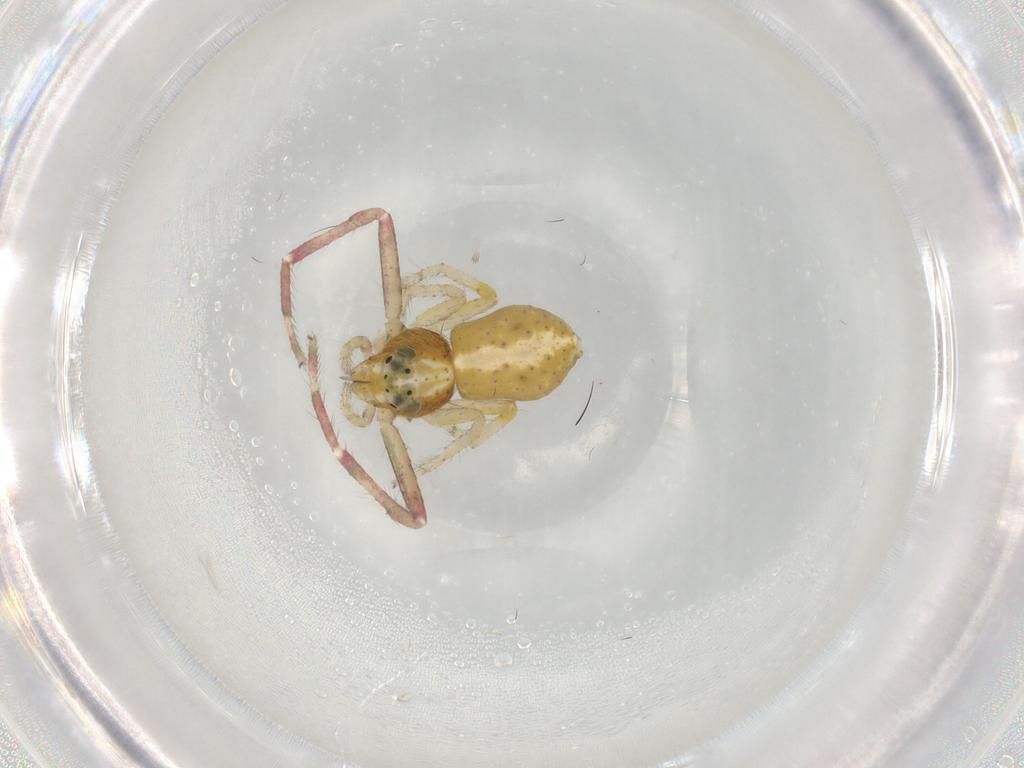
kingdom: Animalia
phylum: Arthropoda
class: Arachnida
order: Araneae
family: Thomisidae
